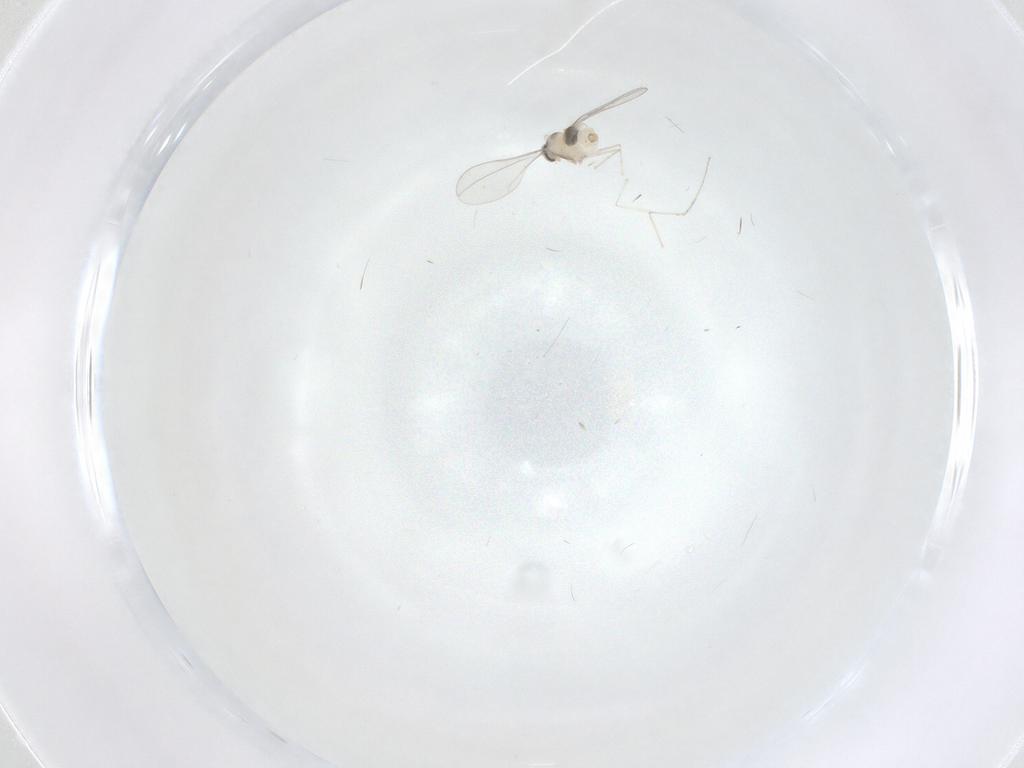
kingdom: Animalia
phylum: Arthropoda
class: Insecta
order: Diptera
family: Cecidomyiidae
